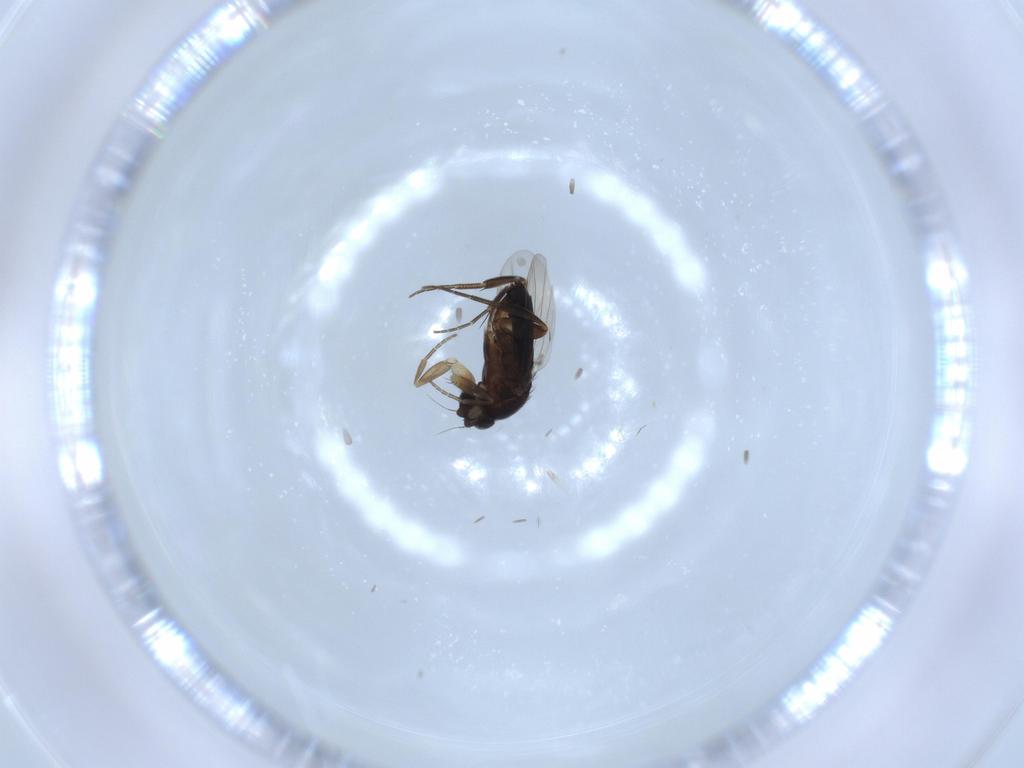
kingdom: Animalia
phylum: Arthropoda
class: Insecta
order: Diptera
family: Phoridae
